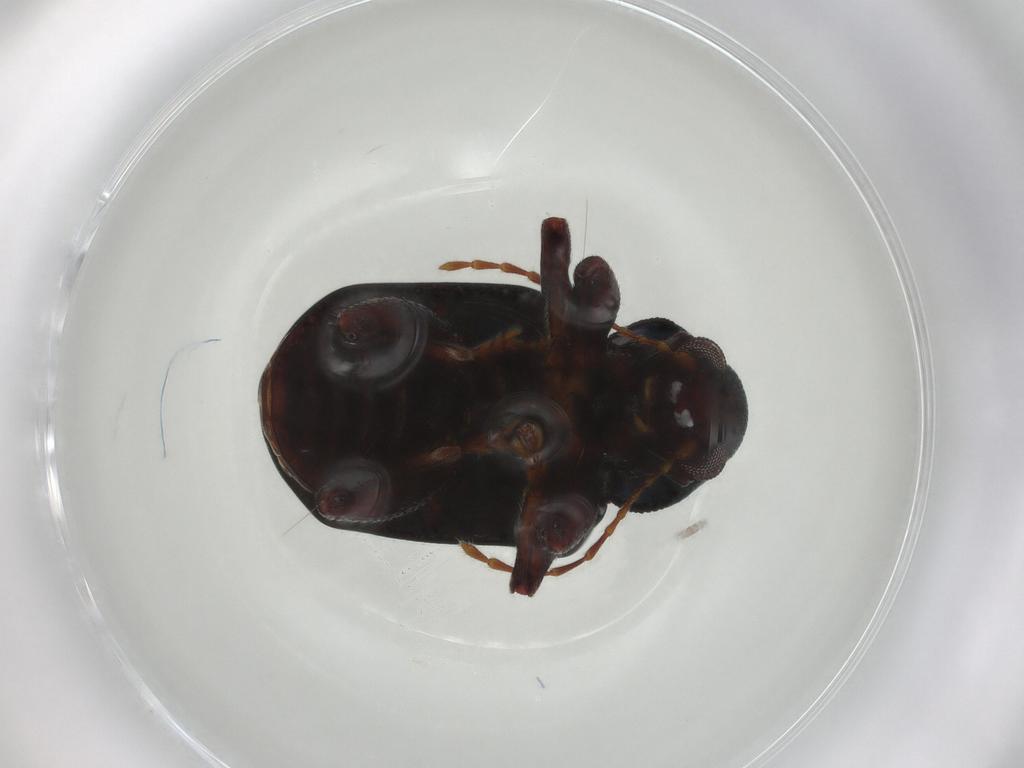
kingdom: Animalia
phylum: Arthropoda
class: Insecta
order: Coleoptera
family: Chrysomelidae
